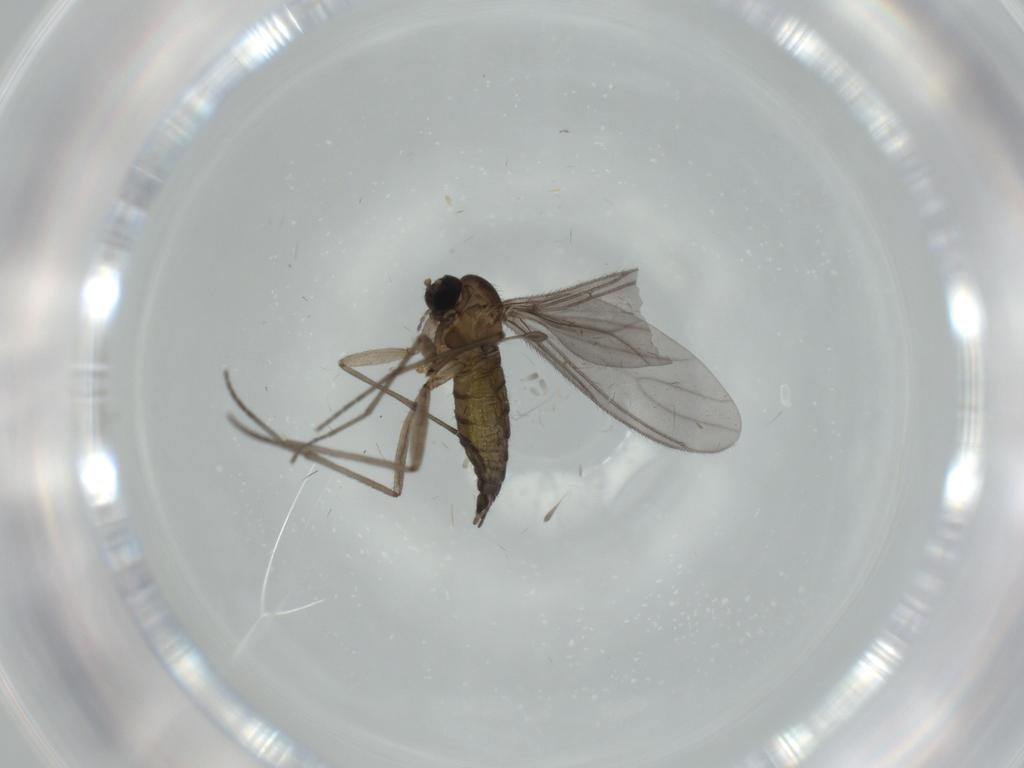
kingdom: Animalia
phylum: Arthropoda
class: Insecta
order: Diptera
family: Sciaridae
